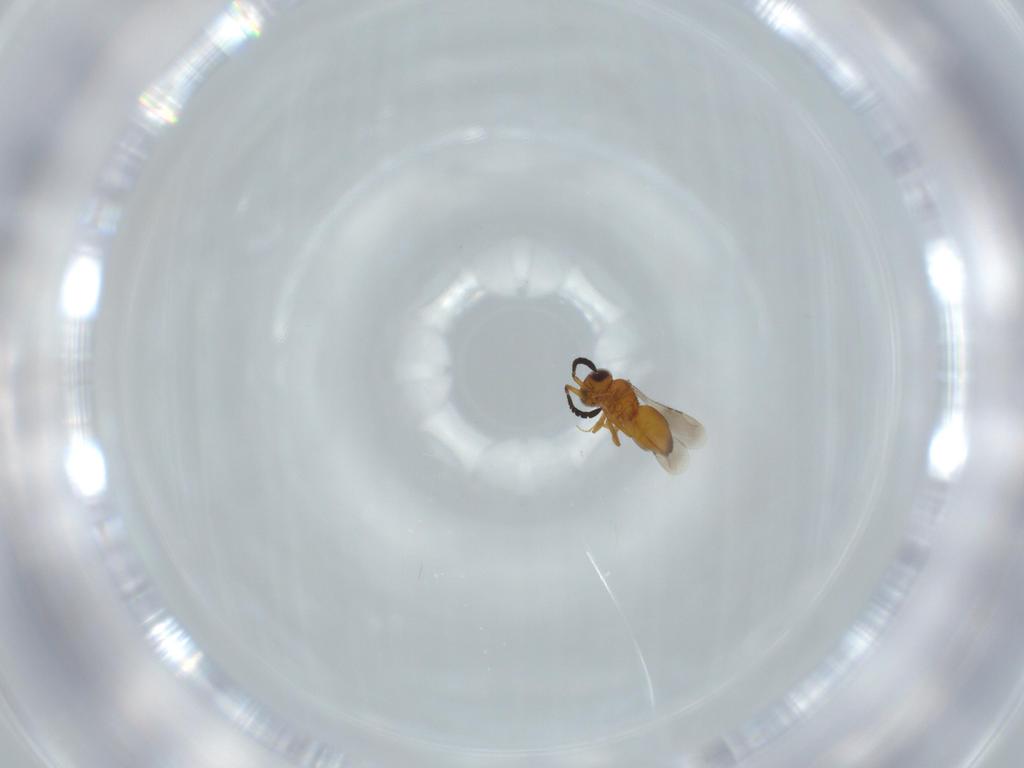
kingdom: Animalia
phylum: Arthropoda
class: Insecta
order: Hymenoptera
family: Ceraphronidae
